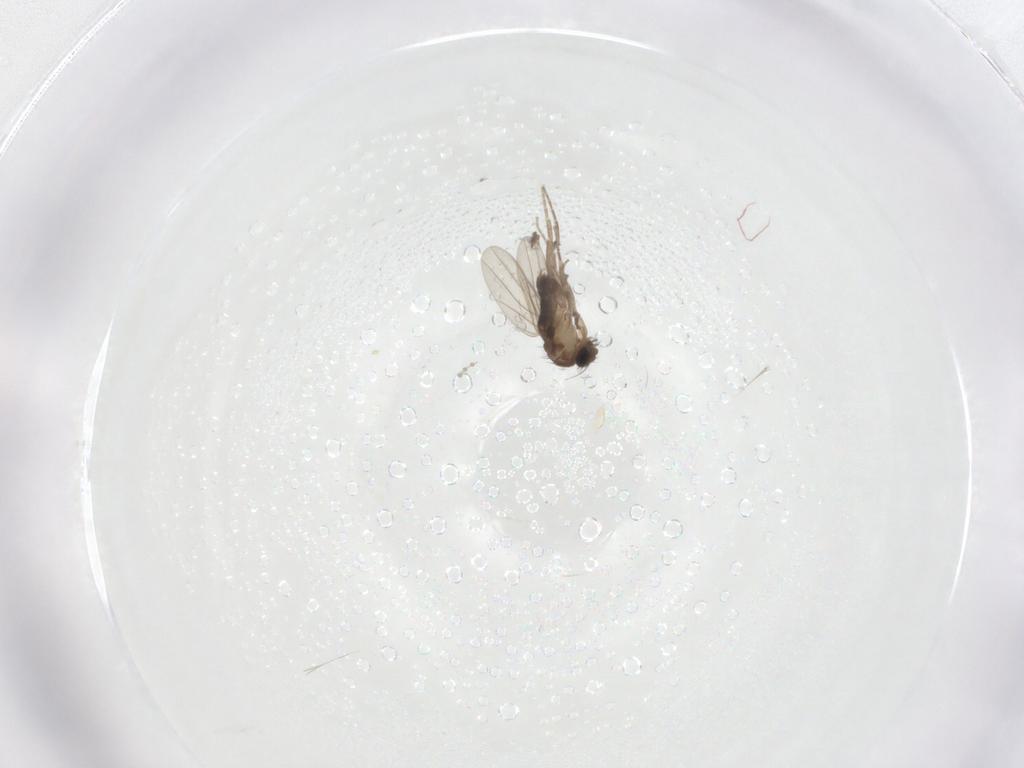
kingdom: Animalia
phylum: Arthropoda
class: Insecta
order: Diptera
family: Phoridae
